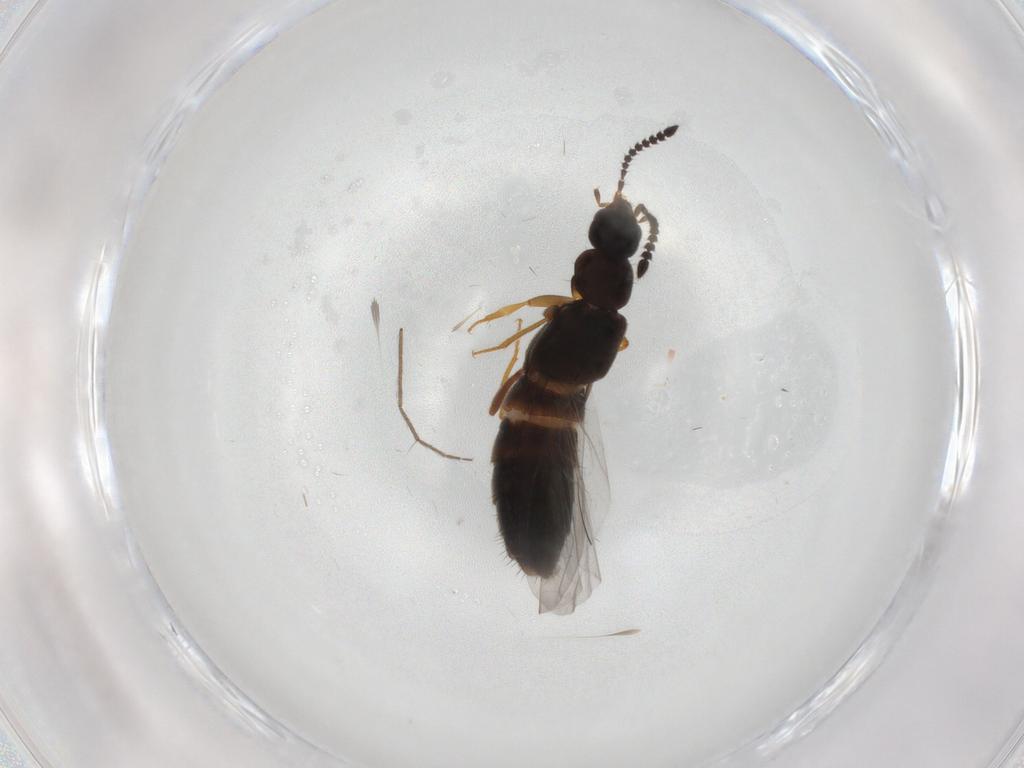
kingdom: Animalia
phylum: Arthropoda
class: Insecta
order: Coleoptera
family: Staphylinidae
